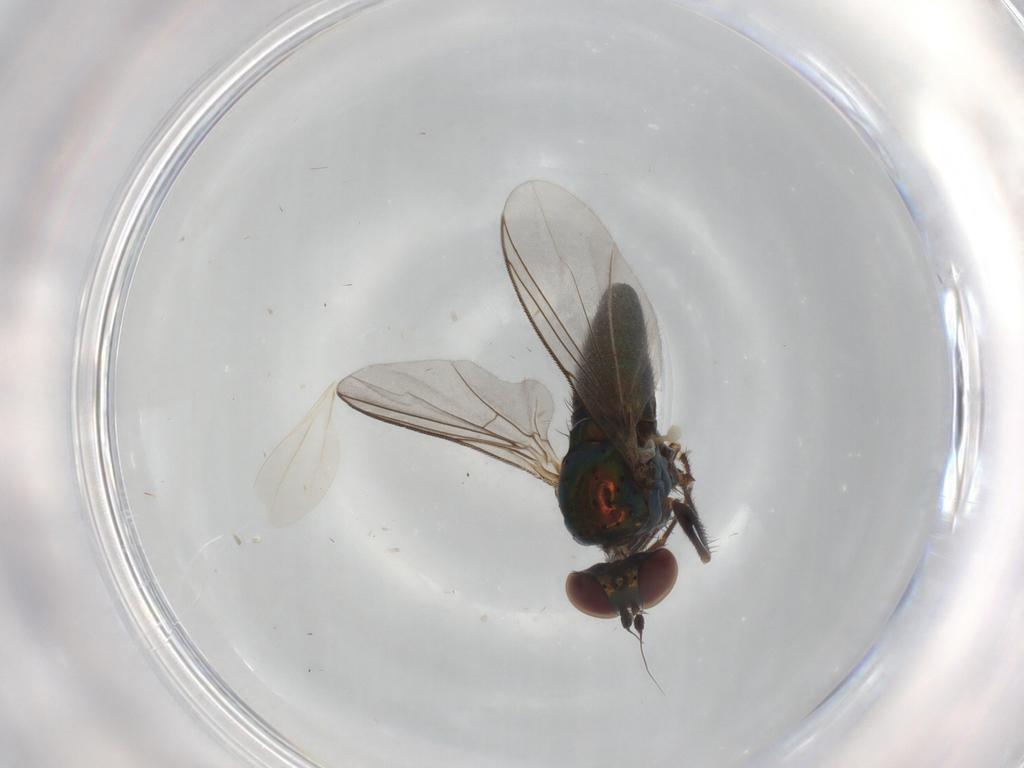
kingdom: Animalia
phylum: Arthropoda
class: Insecta
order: Diptera
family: Dolichopodidae
